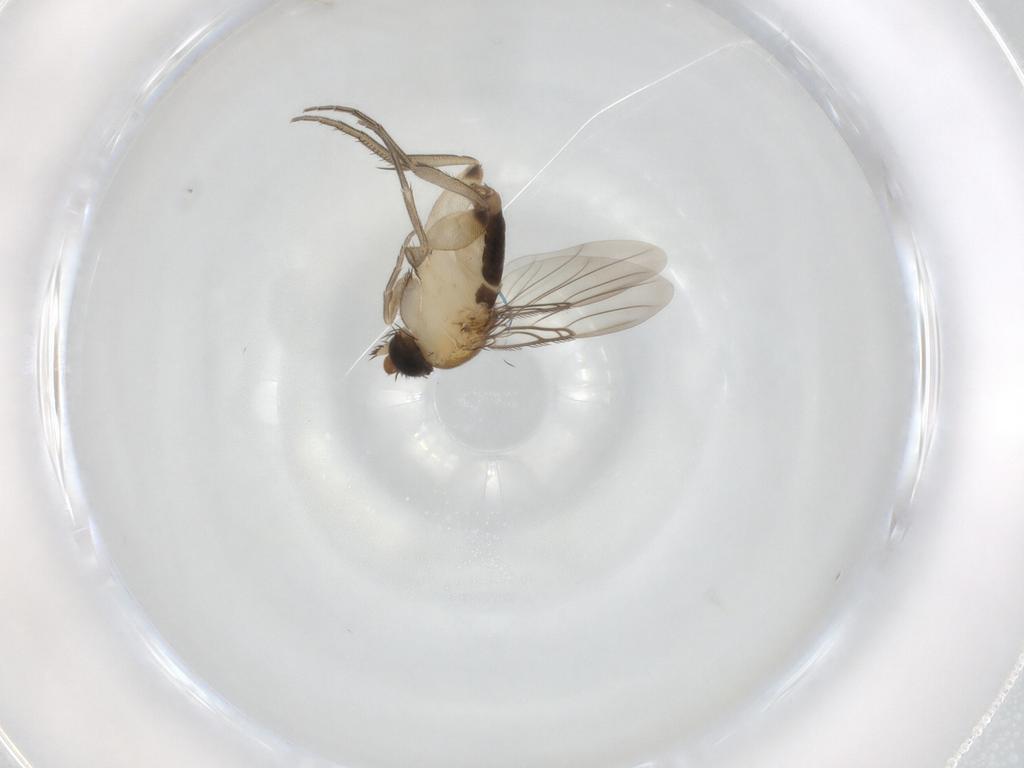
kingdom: Animalia
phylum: Arthropoda
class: Insecta
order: Diptera
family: Phoridae
